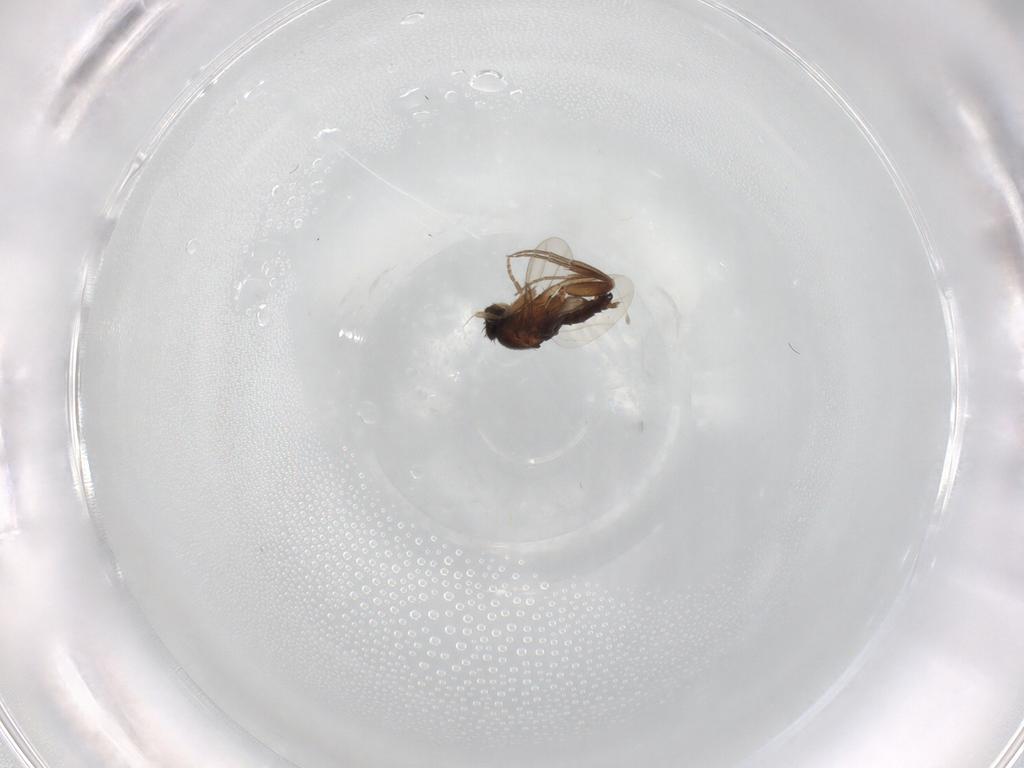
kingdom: Animalia
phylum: Arthropoda
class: Insecta
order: Diptera
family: Phoridae
